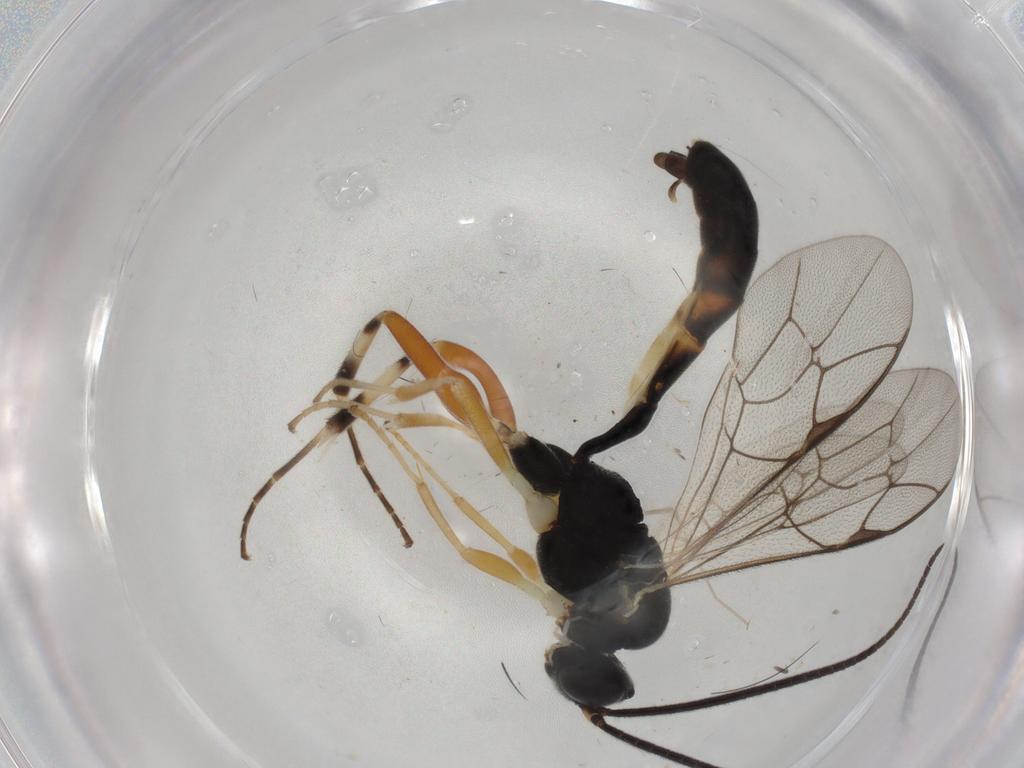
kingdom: Animalia
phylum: Arthropoda
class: Insecta
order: Hymenoptera
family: Ichneumonidae
